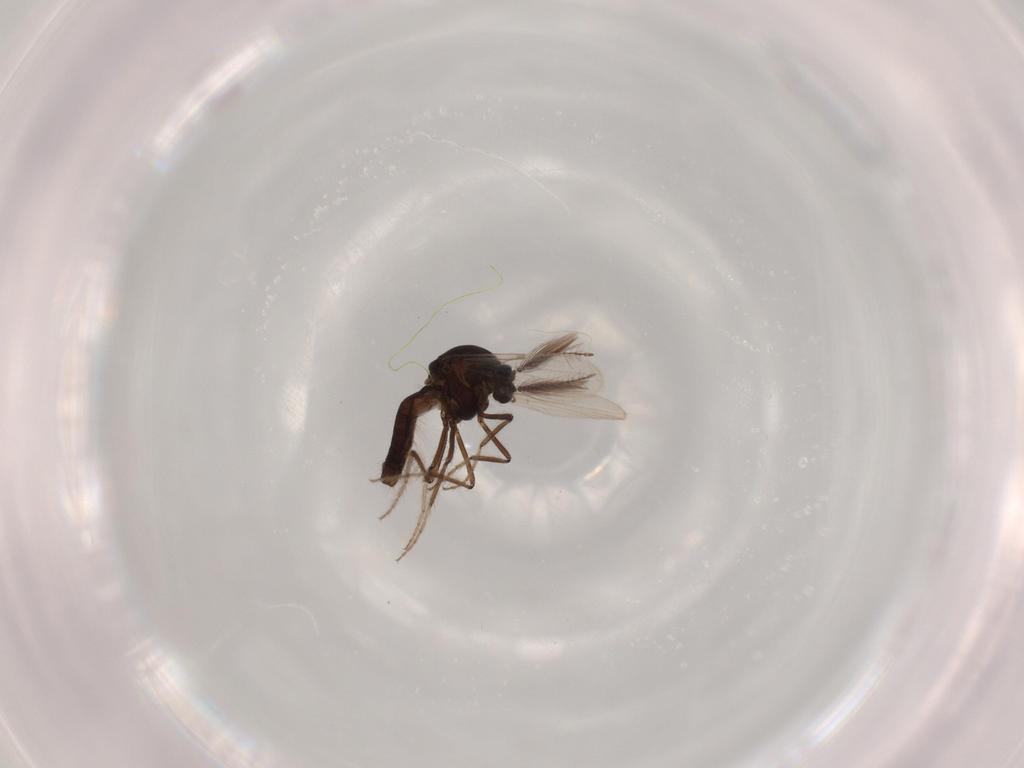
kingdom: Animalia
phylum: Arthropoda
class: Insecta
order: Diptera
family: Chironomidae
